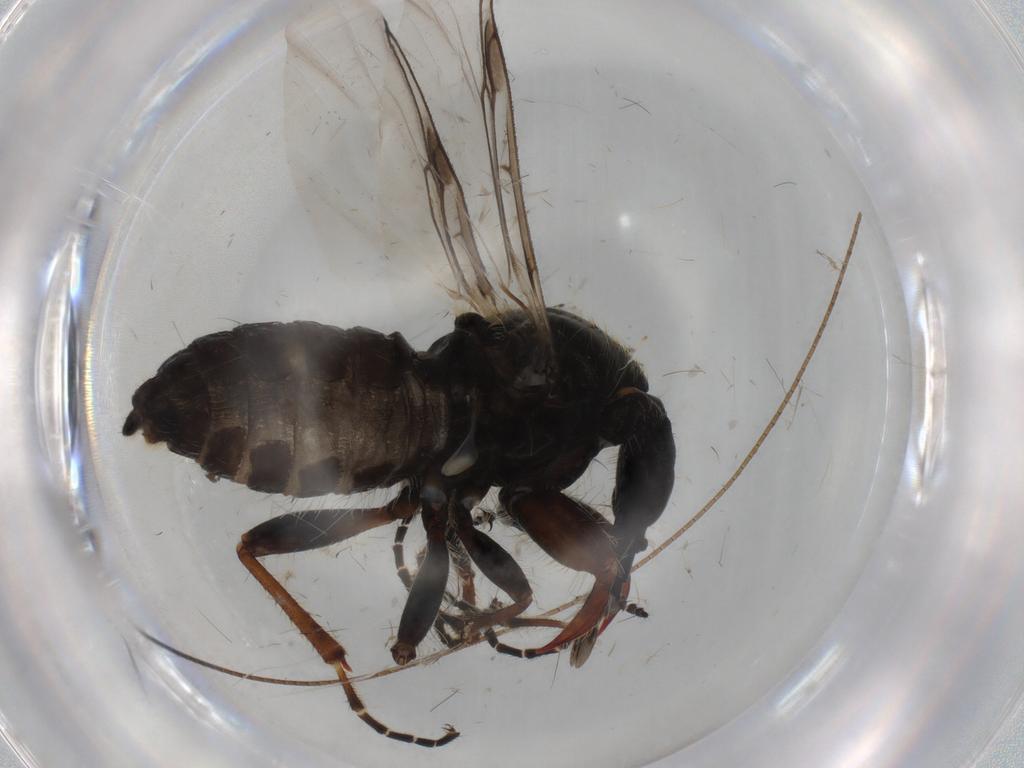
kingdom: Animalia
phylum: Arthropoda
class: Insecta
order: Diptera
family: Bibionidae
